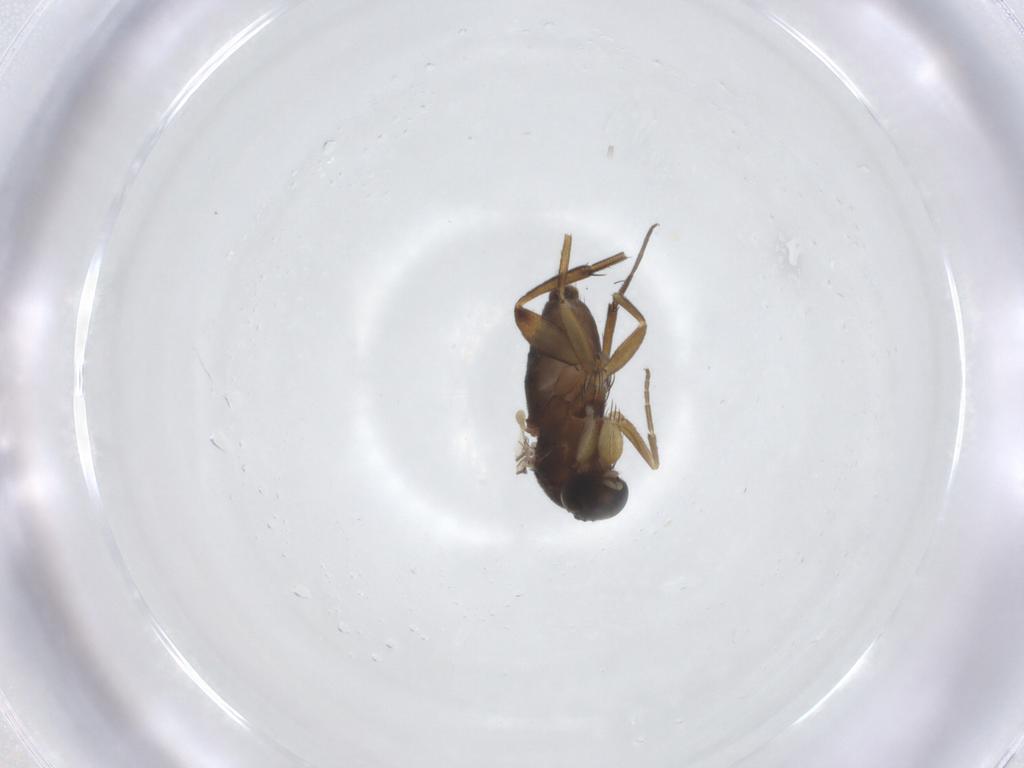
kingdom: Animalia
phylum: Arthropoda
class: Insecta
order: Diptera
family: Phoridae
